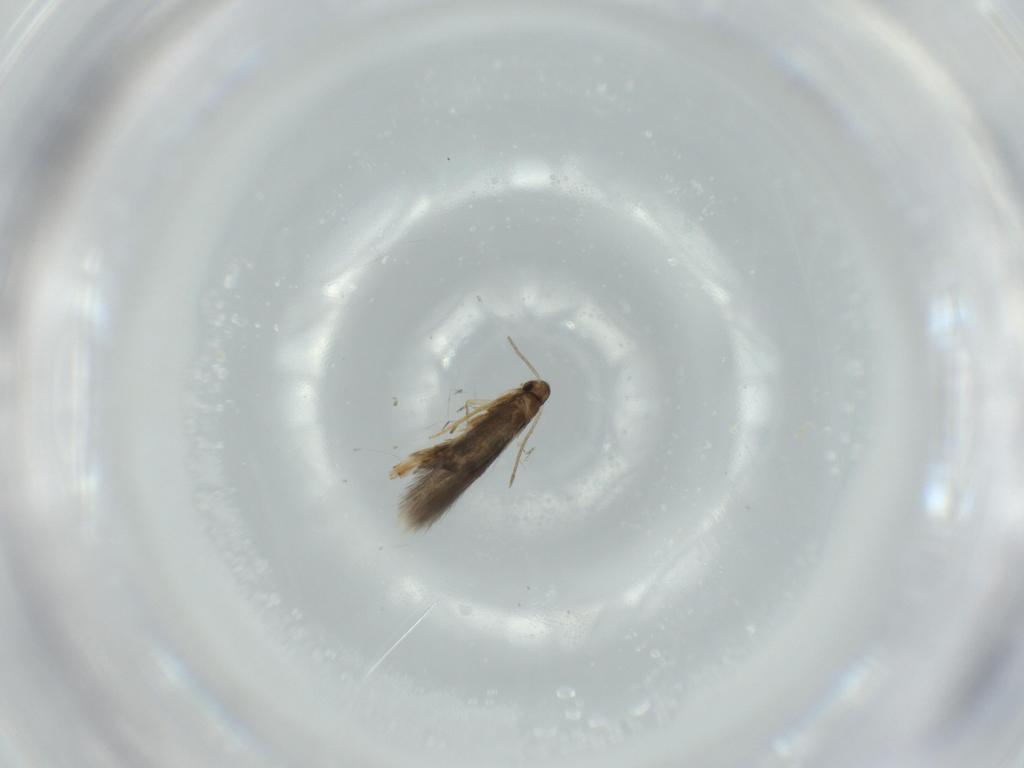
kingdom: Animalia
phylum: Arthropoda
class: Insecta
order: Lepidoptera
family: Heliozelidae
